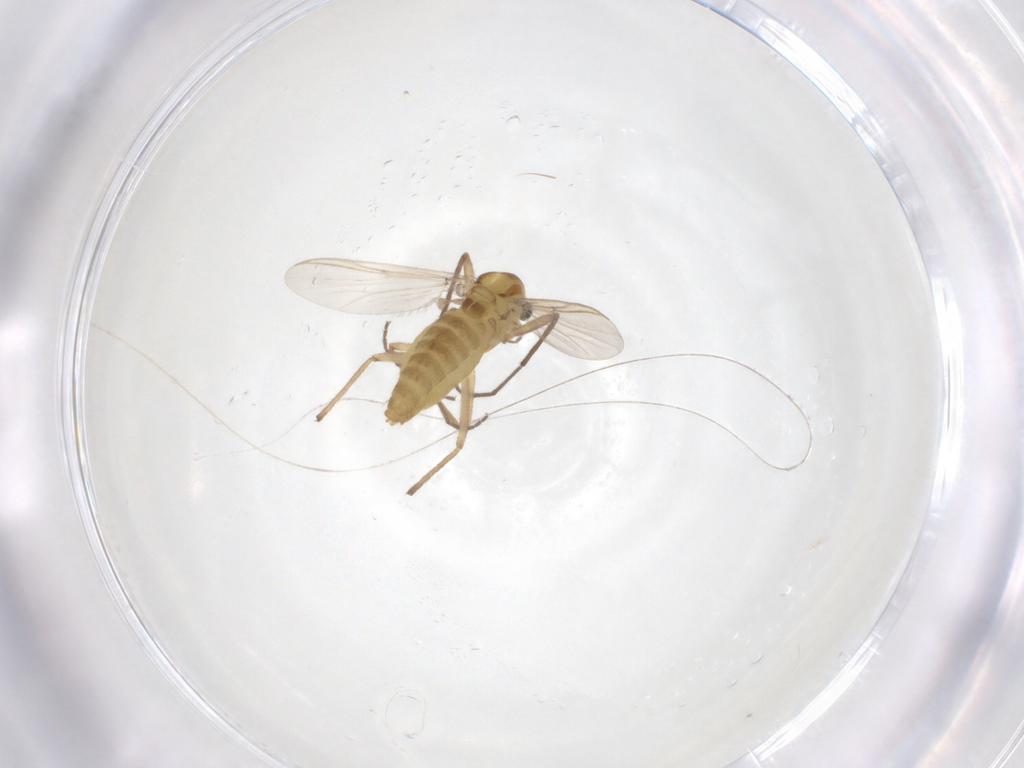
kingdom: Animalia
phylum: Arthropoda
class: Insecta
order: Diptera
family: Chironomidae
